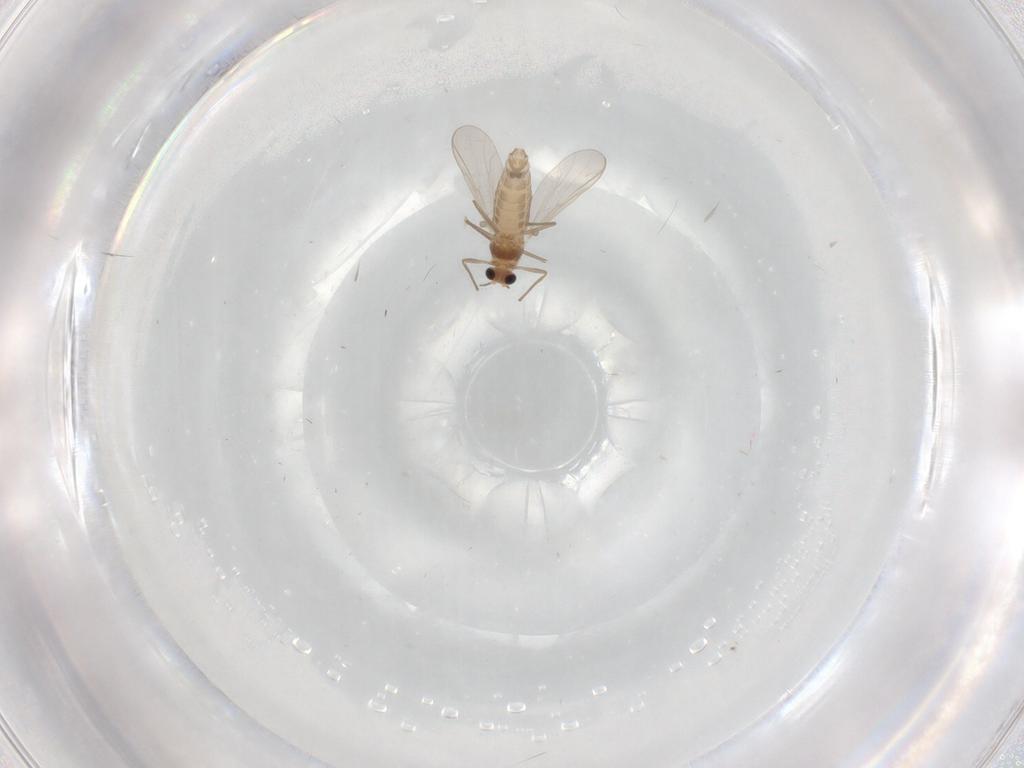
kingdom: Animalia
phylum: Arthropoda
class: Insecta
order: Diptera
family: Chironomidae
